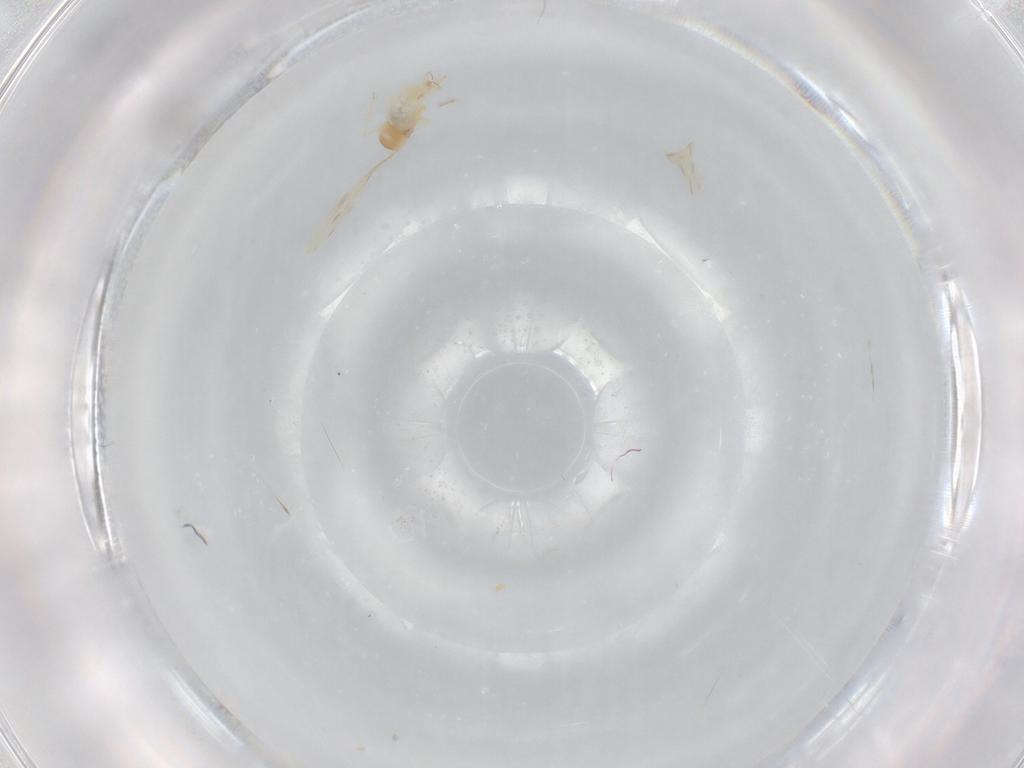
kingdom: Animalia
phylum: Arthropoda
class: Insecta
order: Diptera
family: Cecidomyiidae
